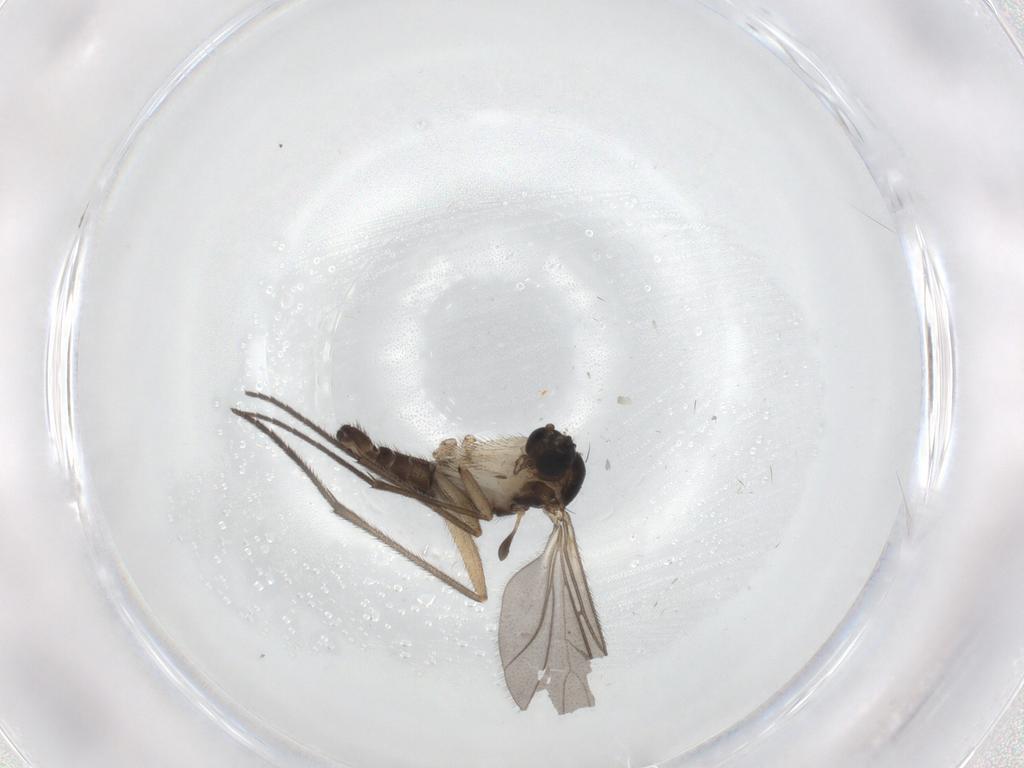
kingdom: Animalia
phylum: Arthropoda
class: Insecta
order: Diptera
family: Sciaridae
